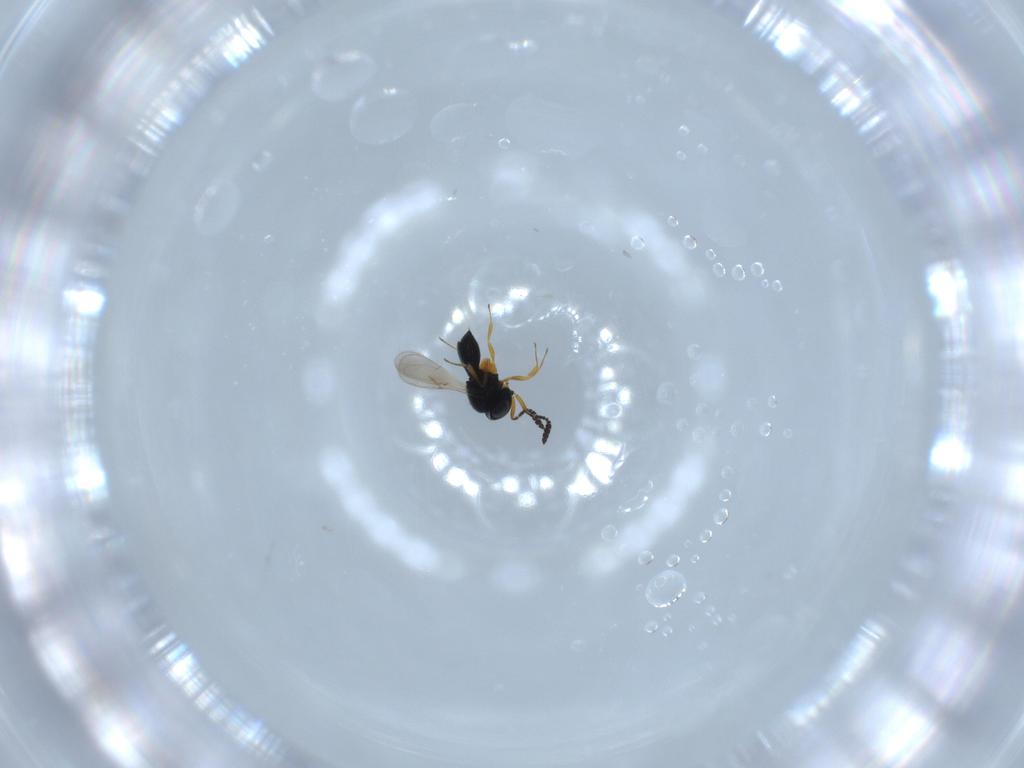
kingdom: Animalia
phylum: Arthropoda
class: Insecta
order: Hymenoptera
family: Scelionidae
